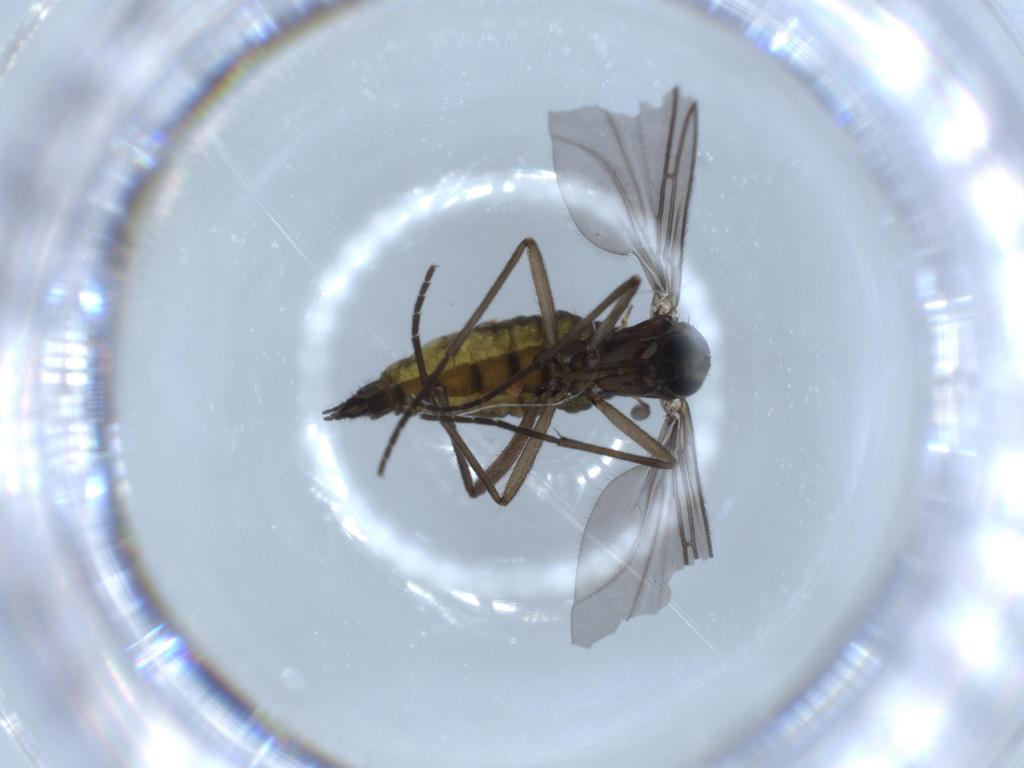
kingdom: Animalia
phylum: Arthropoda
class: Insecta
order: Diptera
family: Sciaridae
